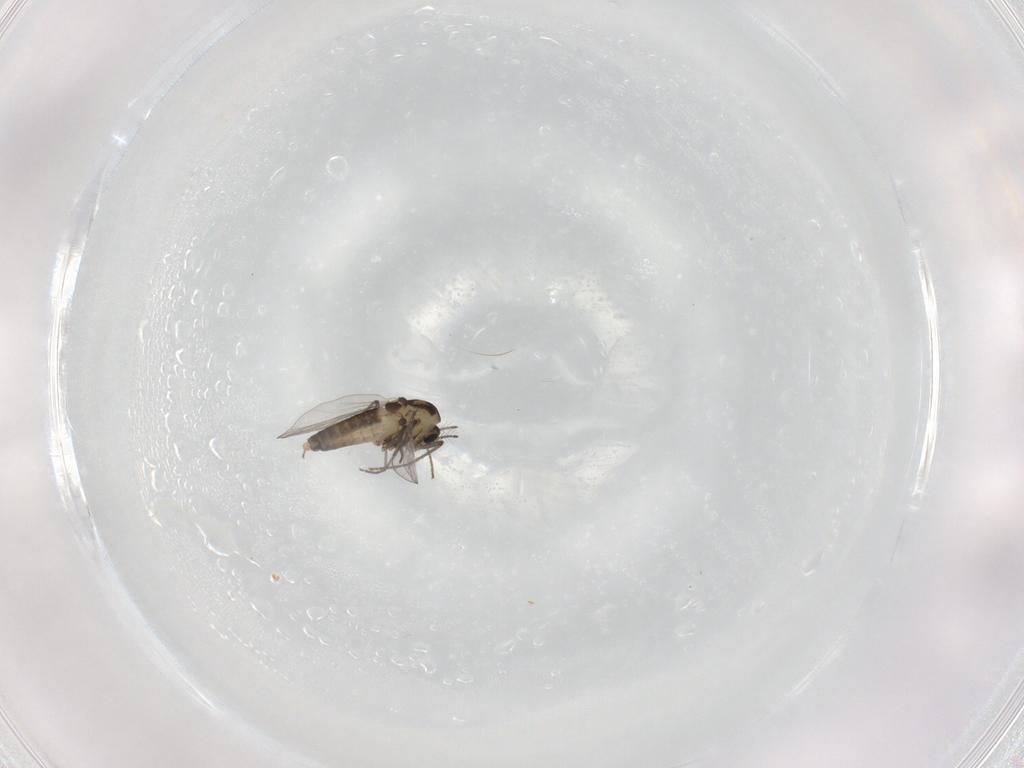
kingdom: Animalia
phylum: Arthropoda
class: Insecta
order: Diptera
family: Chironomidae
